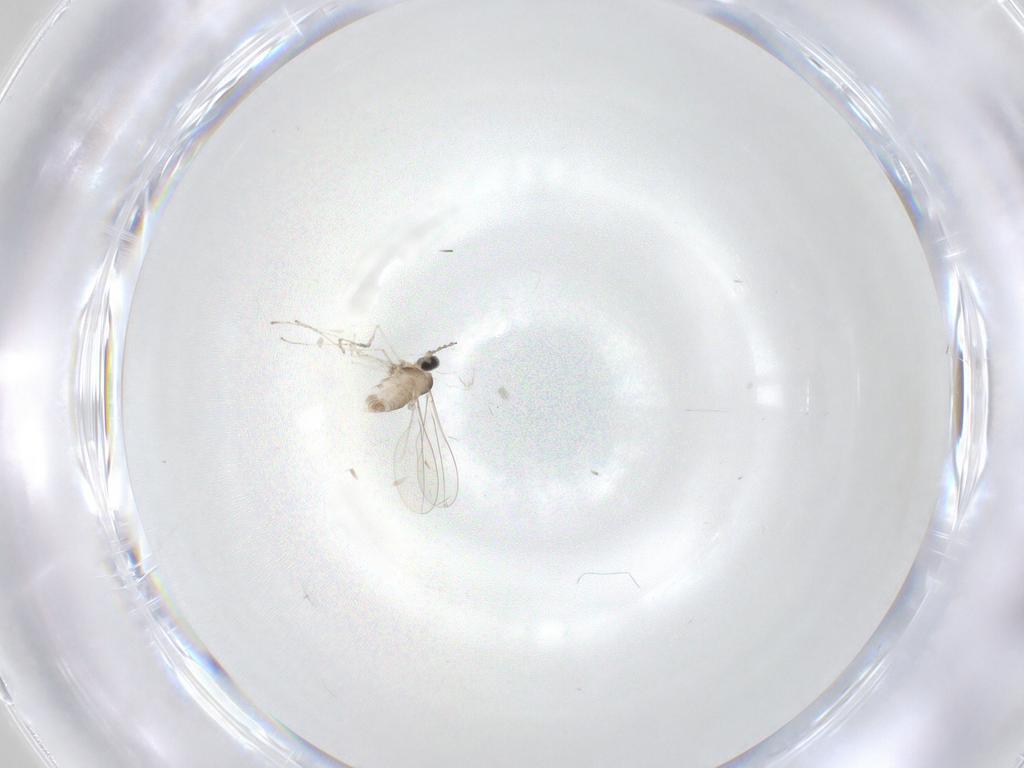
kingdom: Animalia
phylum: Arthropoda
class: Insecta
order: Diptera
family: Cecidomyiidae
